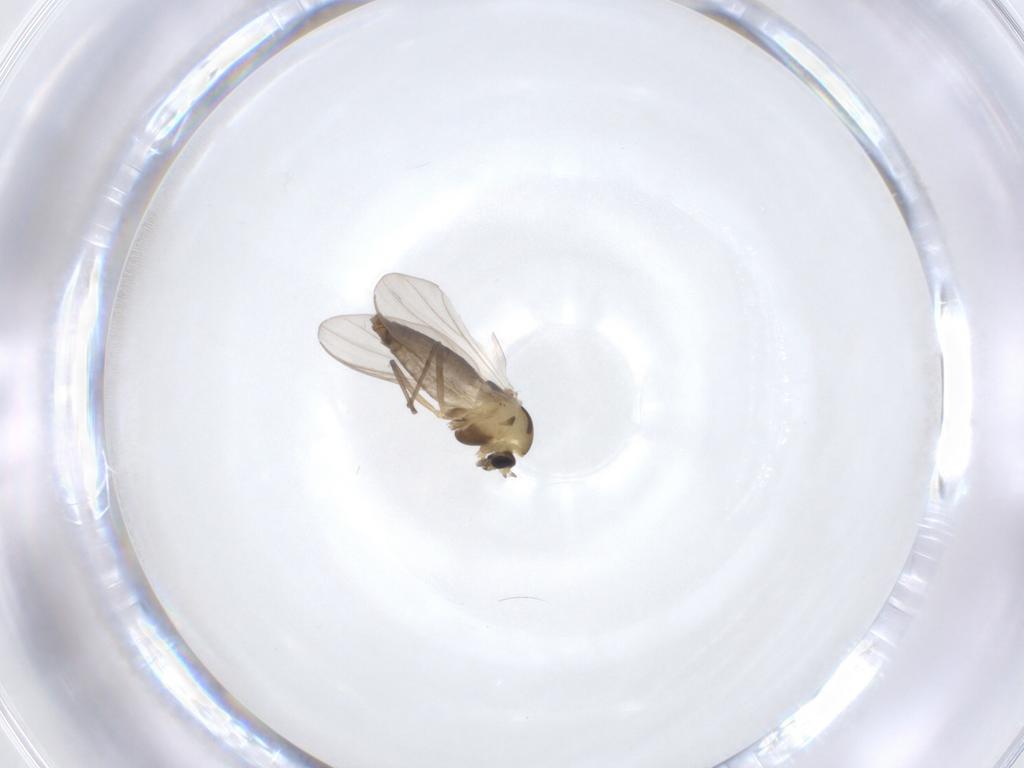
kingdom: Animalia
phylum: Arthropoda
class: Insecta
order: Diptera
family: Chironomidae
